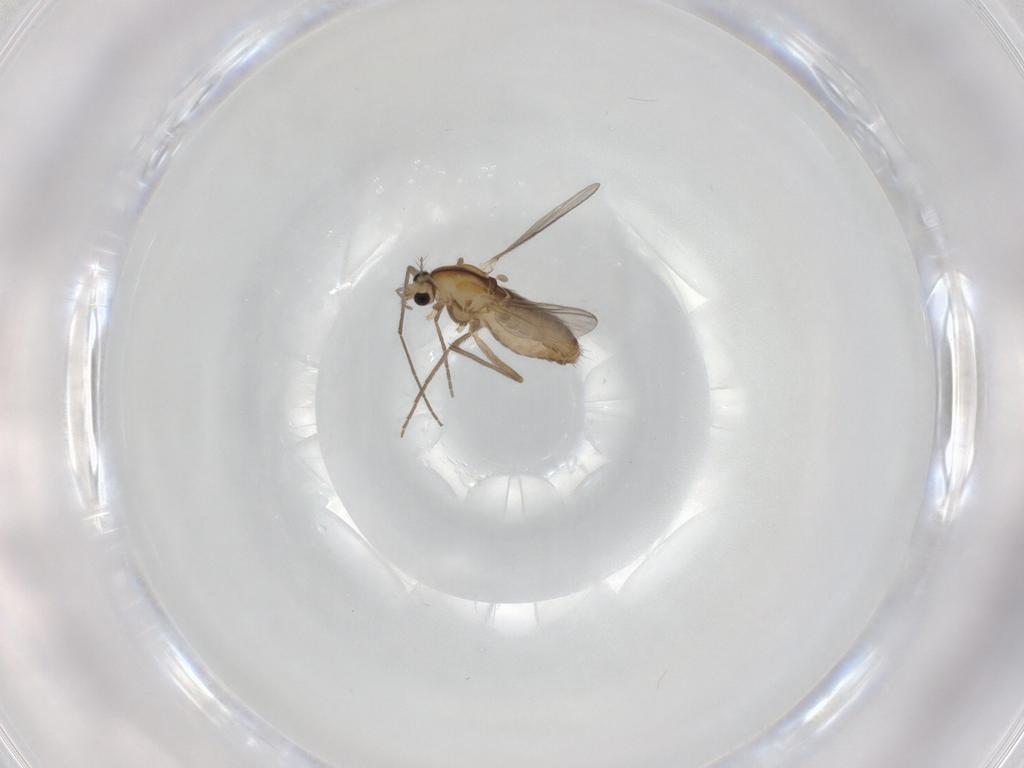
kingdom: Animalia
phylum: Arthropoda
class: Insecta
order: Diptera
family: Chironomidae
